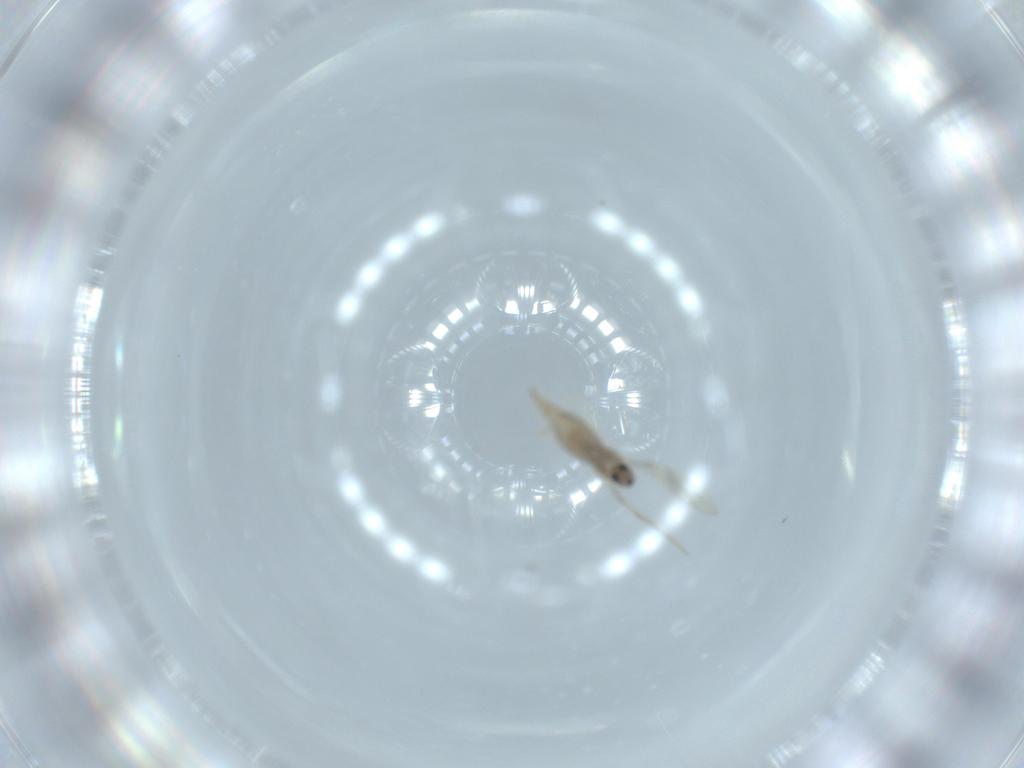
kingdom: Animalia
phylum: Arthropoda
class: Insecta
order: Diptera
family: Cecidomyiidae
